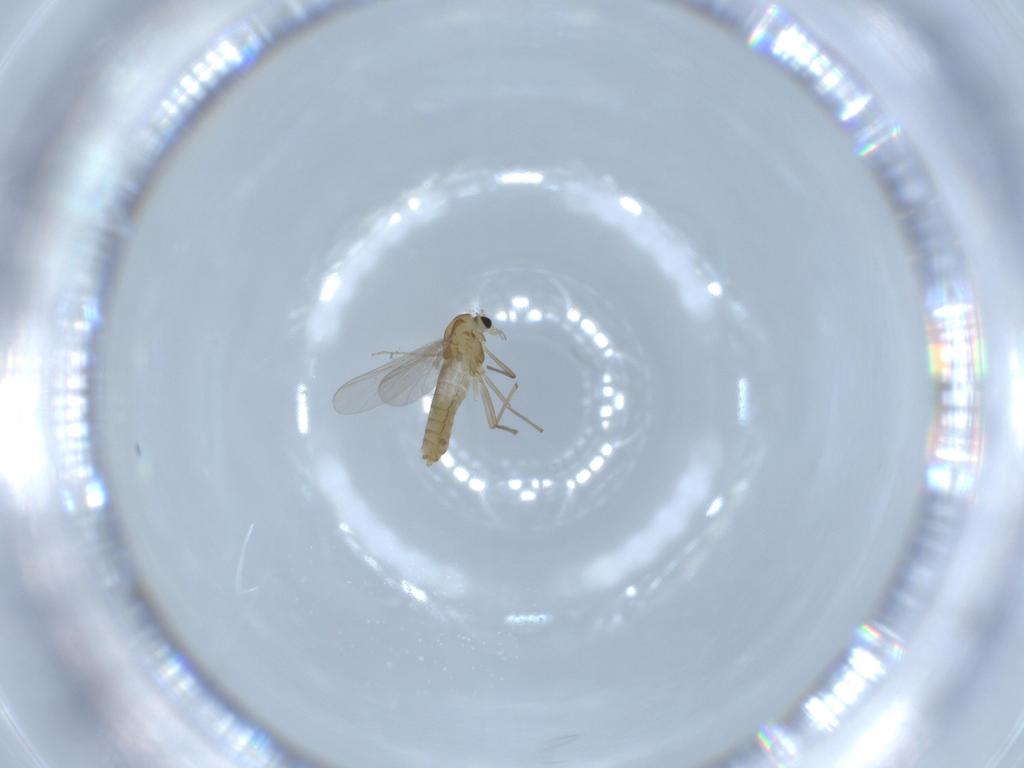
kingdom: Animalia
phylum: Arthropoda
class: Insecta
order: Diptera
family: Chironomidae
